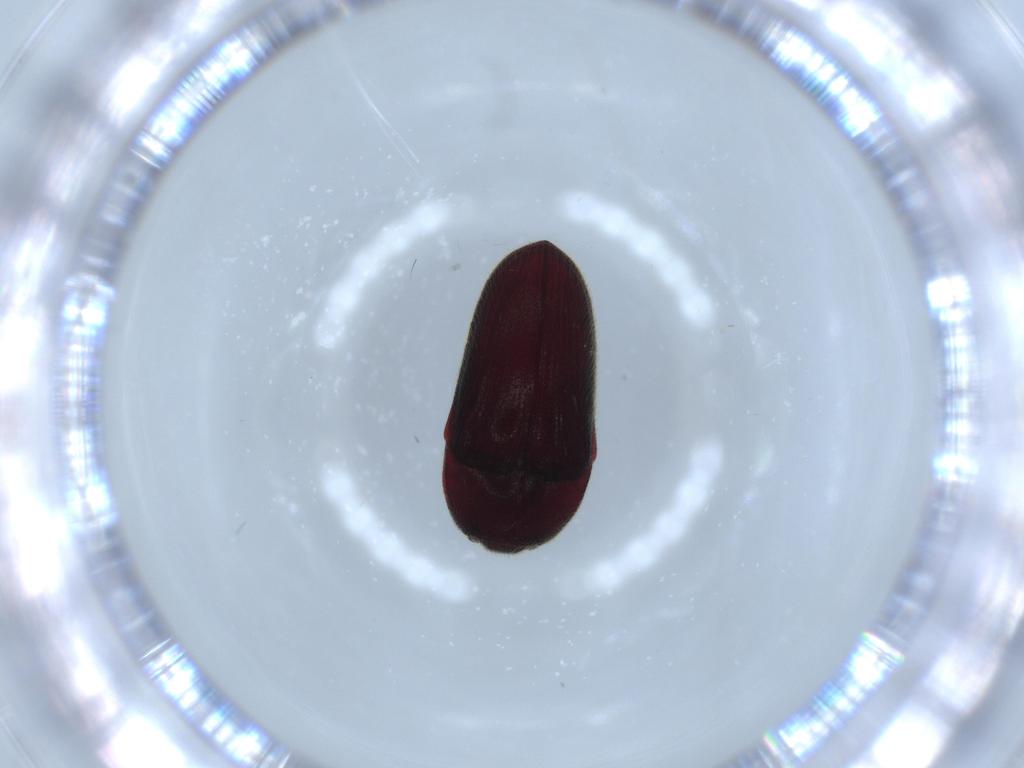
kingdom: Animalia
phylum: Arthropoda
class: Insecta
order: Coleoptera
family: Throscidae
